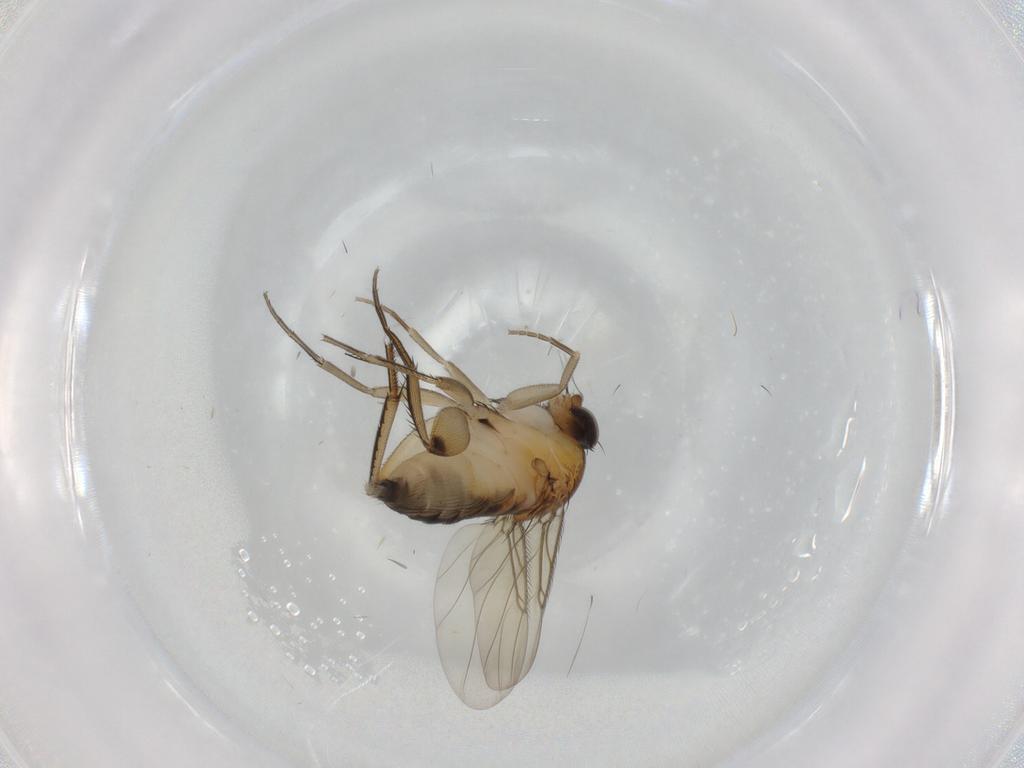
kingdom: Animalia
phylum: Arthropoda
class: Insecta
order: Diptera
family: Phoridae
